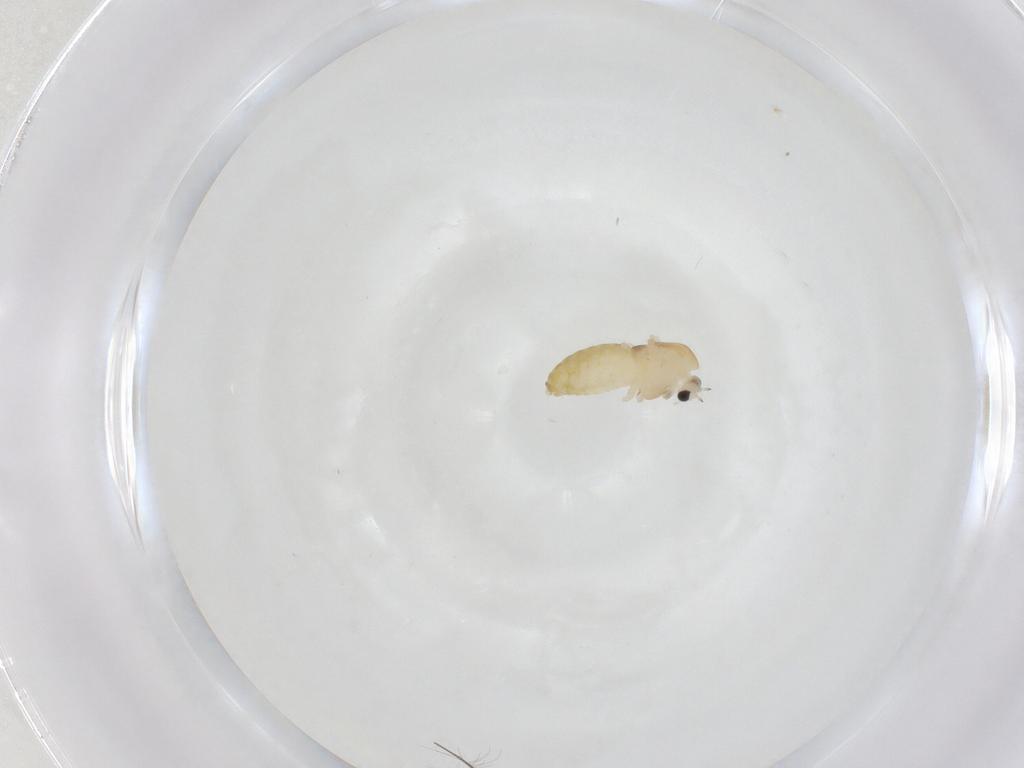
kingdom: Animalia
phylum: Arthropoda
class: Insecta
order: Diptera
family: Chironomidae
